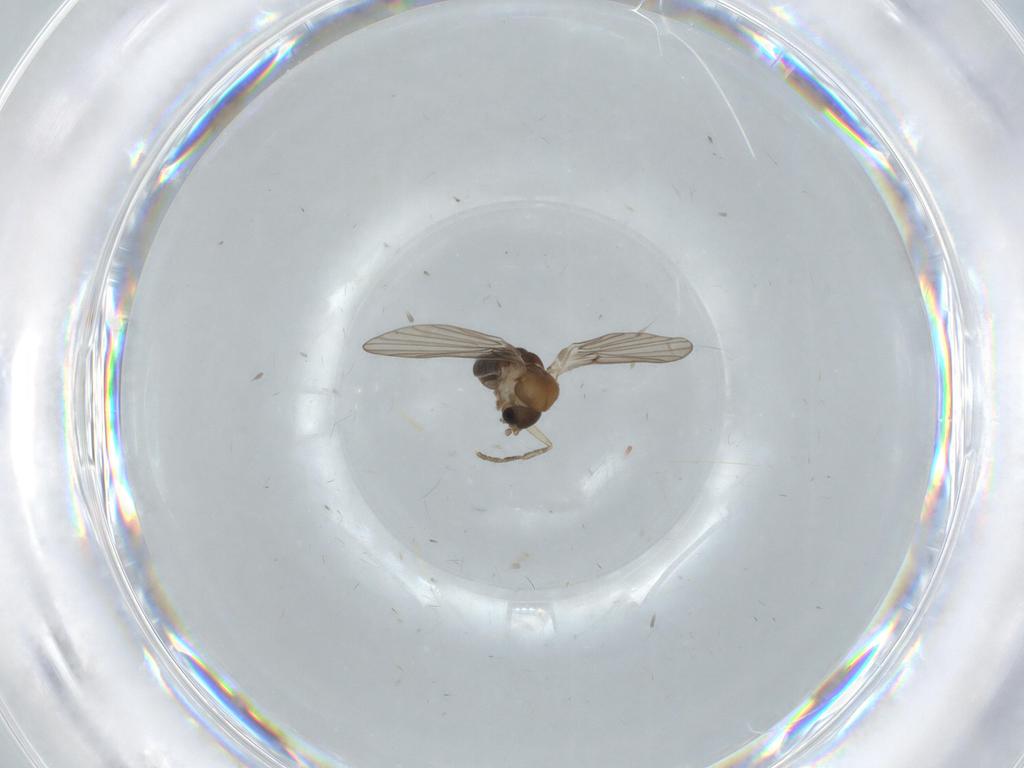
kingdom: Animalia
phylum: Arthropoda
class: Insecta
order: Diptera
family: Psychodidae
